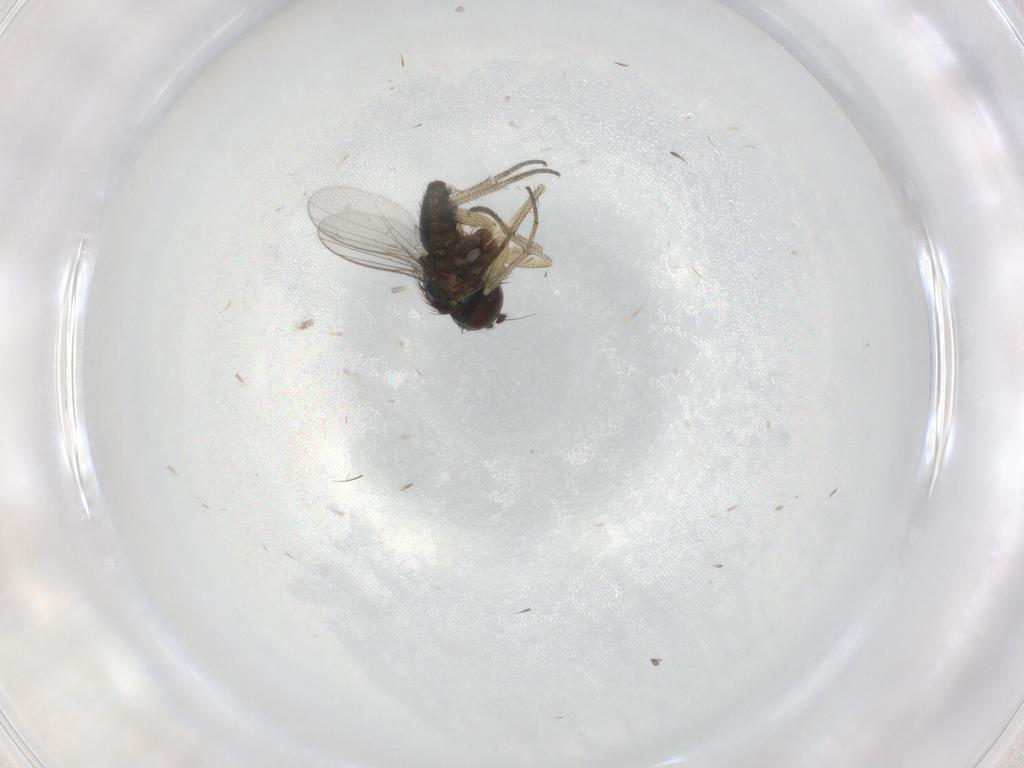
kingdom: Animalia
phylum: Arthropoda
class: Insecta
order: Diptera
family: Dolichopodidae
